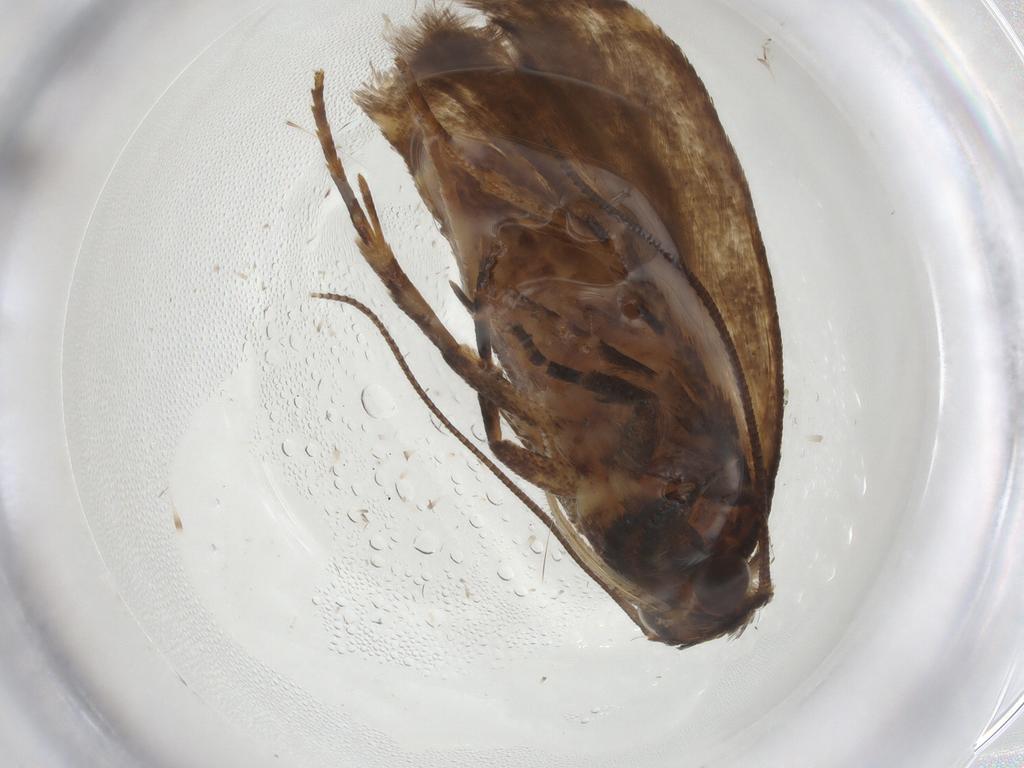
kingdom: Animalia
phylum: Arthropoda
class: Insecta
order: Lepidoptera
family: Gelechiidae
